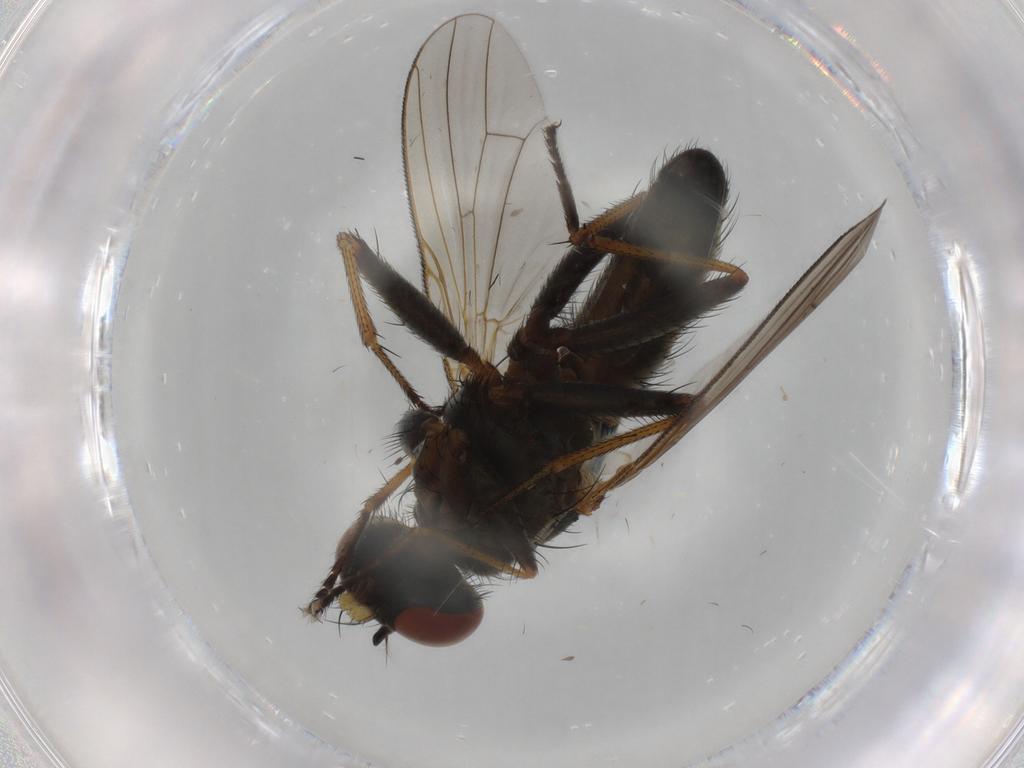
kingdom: Animalia
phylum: Arthropoda
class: Insecta
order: Diptera
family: Muscidae
